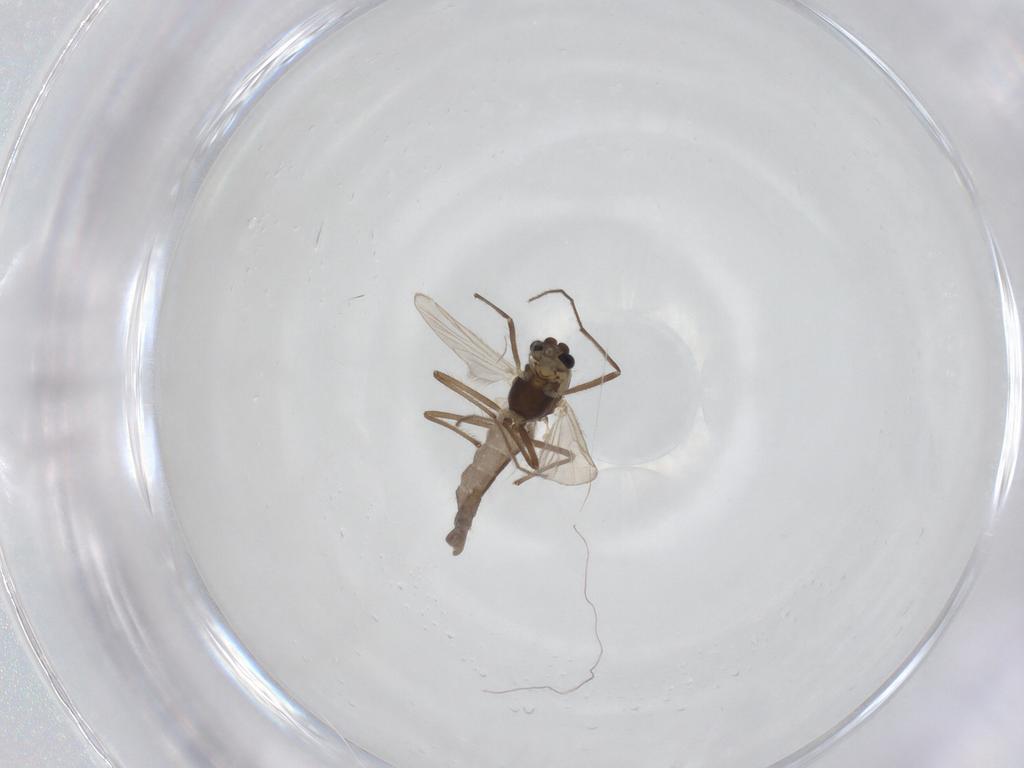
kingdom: Animalia
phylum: Arthropoda
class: Insecta
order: Diptera
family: Chironomidae
